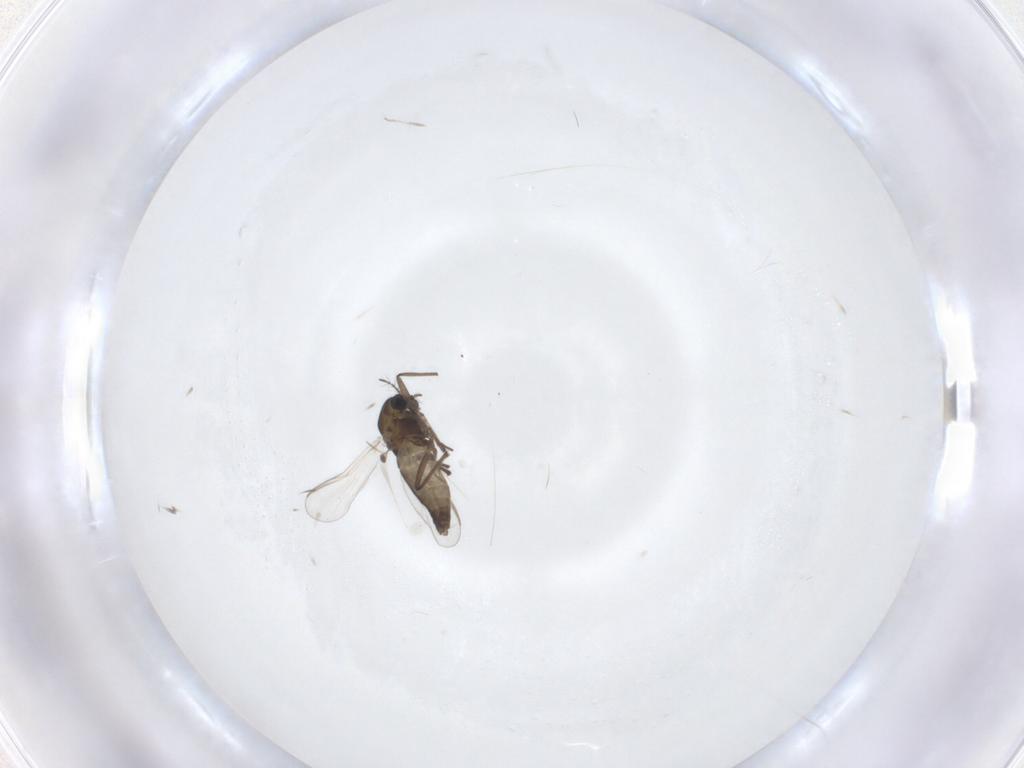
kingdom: Animalia
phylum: Arthropoda
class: Insecta
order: Diptera
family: Chironomidae
